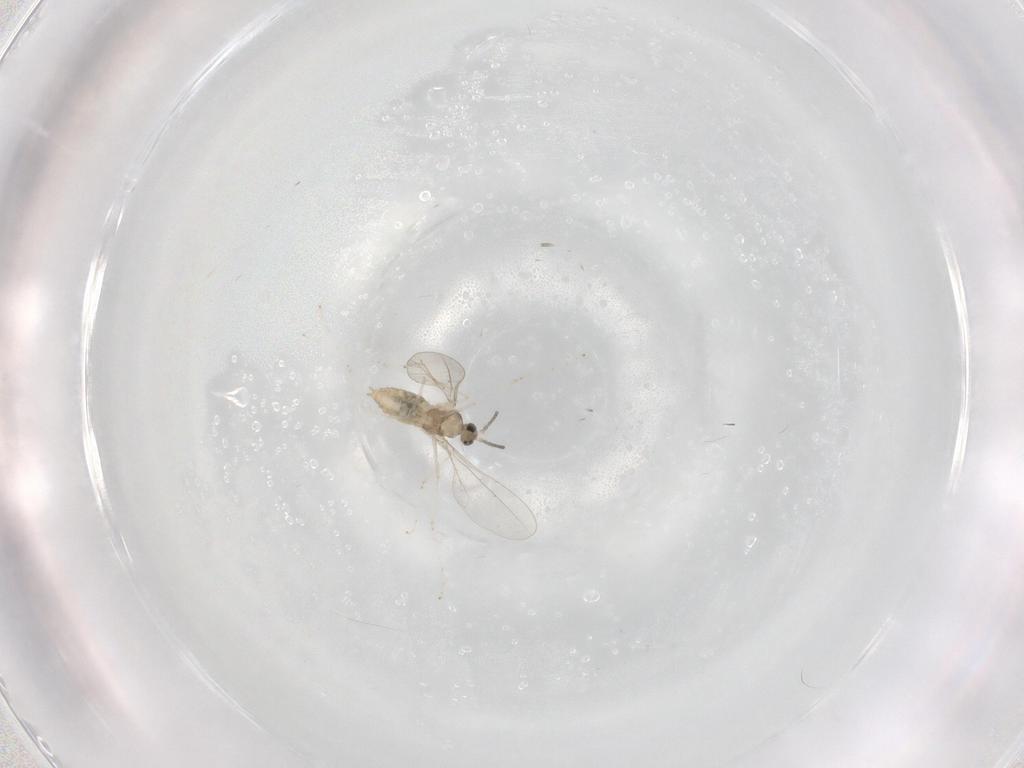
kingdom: Animalia
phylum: Arthropoda
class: Insecta
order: Diptera
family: Cecidomyiidae
